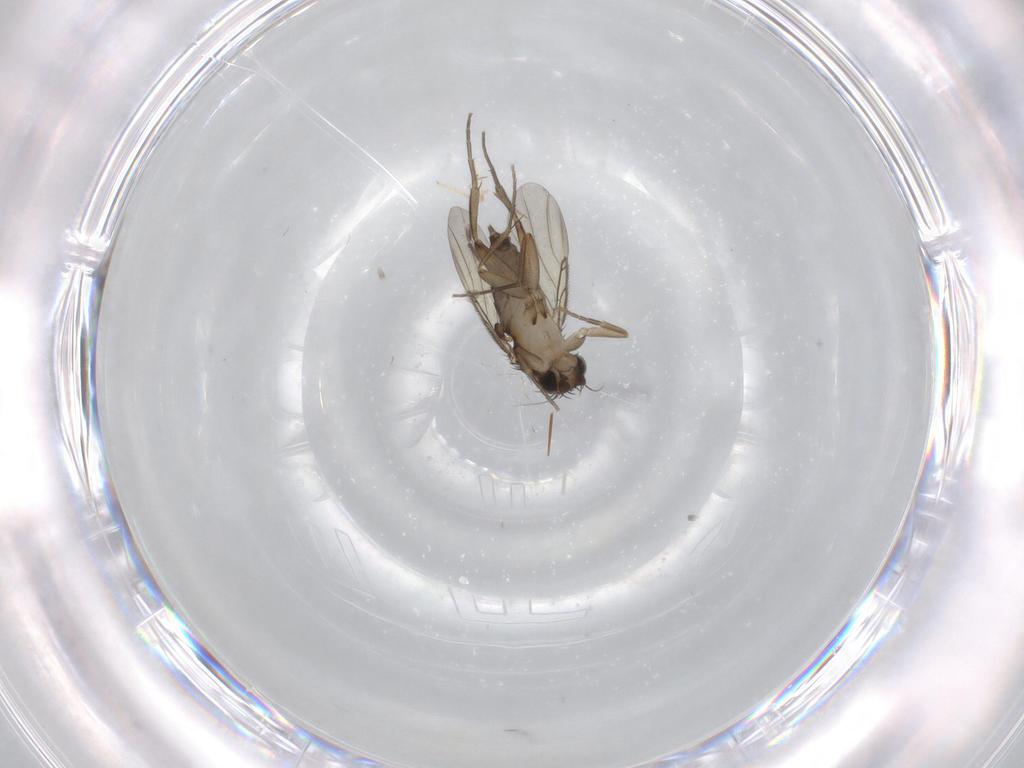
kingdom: Animalia
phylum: Arthropoda
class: Insecta
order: Diptera
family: Phoridae
